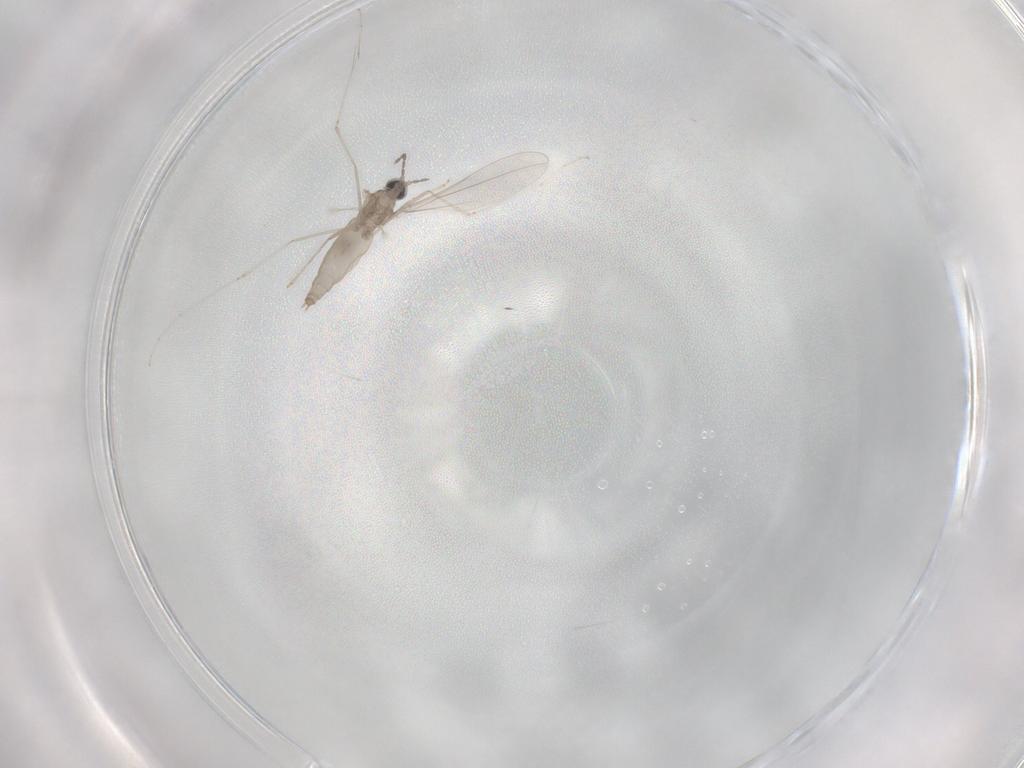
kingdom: Animalia
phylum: Arthropoda
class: Insecta
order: Diptera
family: Cecidomyiidae
